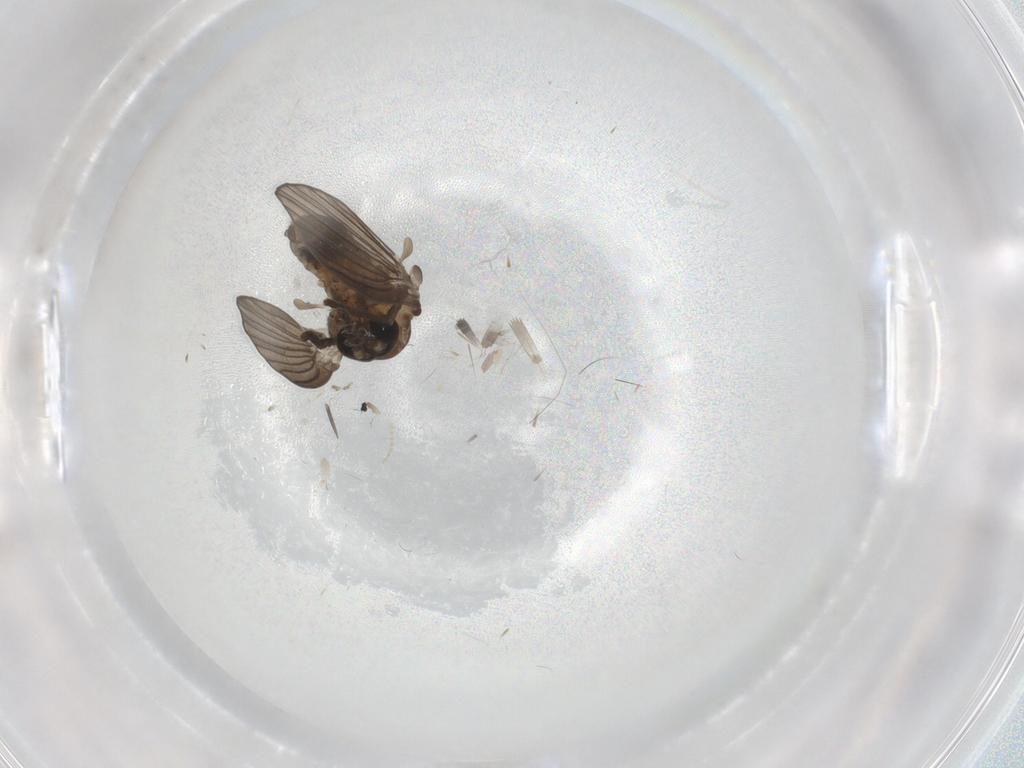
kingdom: Animalia
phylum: Arthropoda
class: Insecta
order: Diptera
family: Psychodidae
